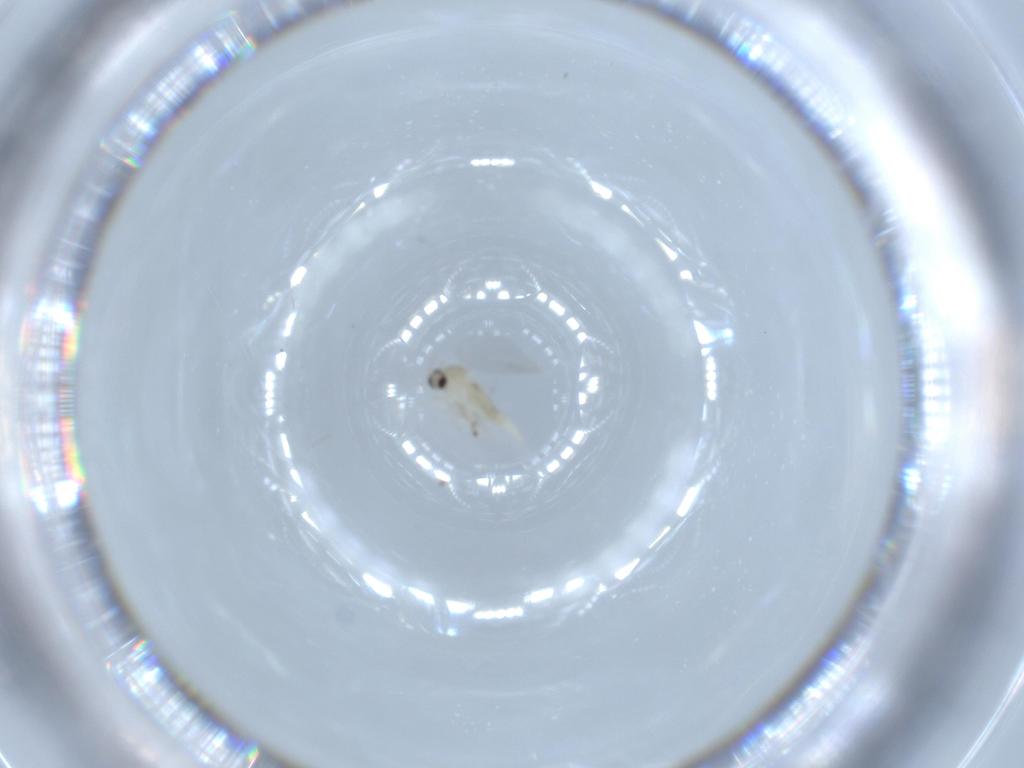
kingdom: Animalia
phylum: Arthropoda
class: Insecta
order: Diptera
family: Cecidomyiidae
